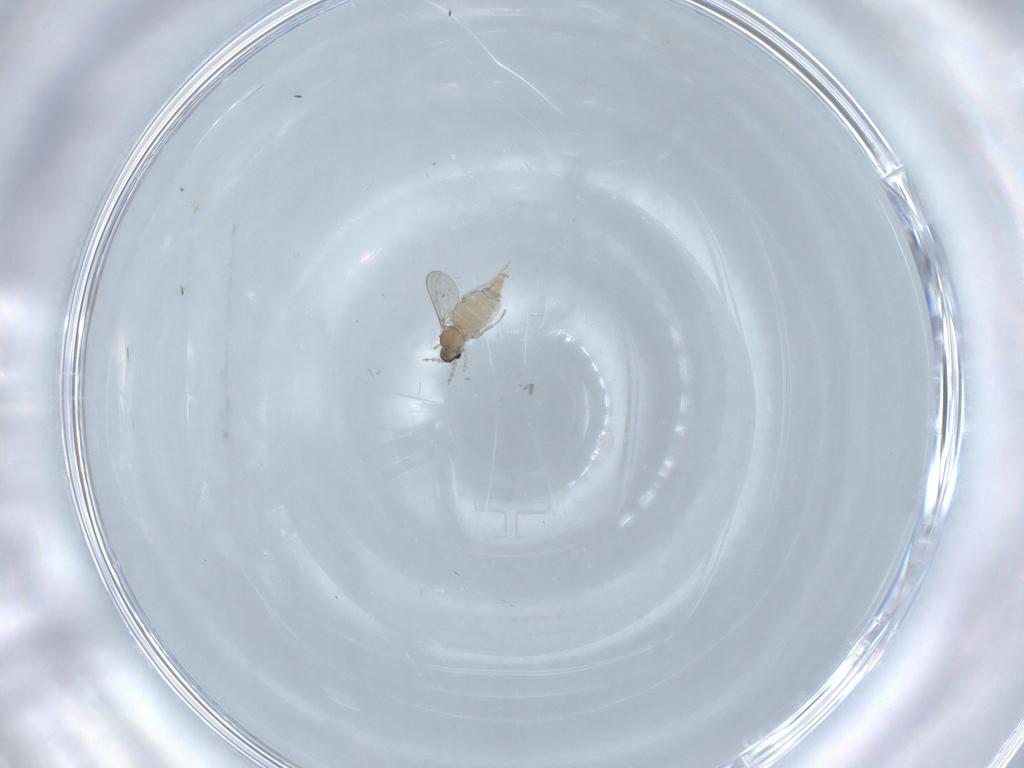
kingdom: Animalia
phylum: Arthropoda
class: Insecta
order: Diptera
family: Cecidomyiidae
